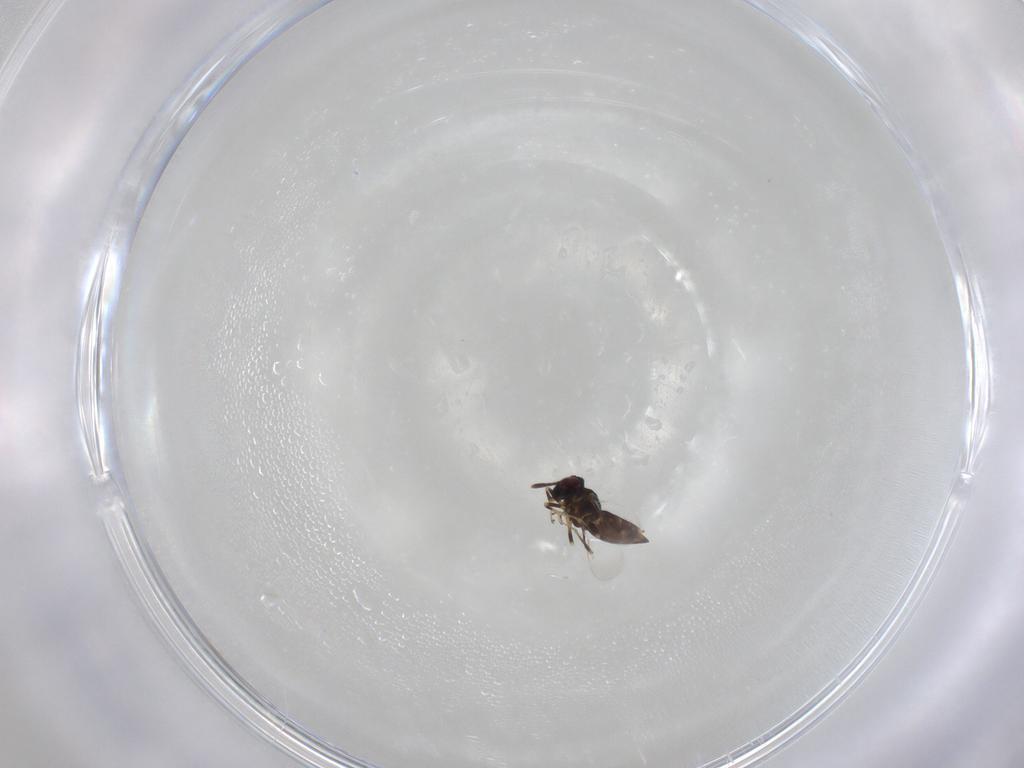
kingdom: Animalia
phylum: Arthropoda
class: Insecta
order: Hymenoptera
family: Encyrtidae
